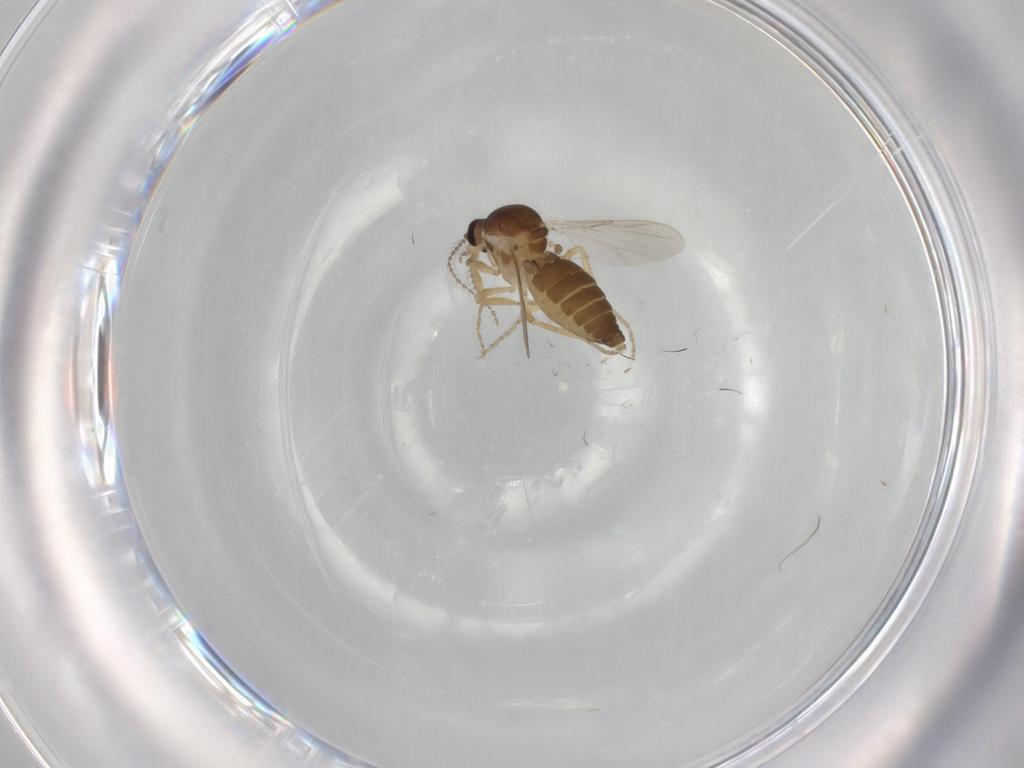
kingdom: Animalia
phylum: Arthropoda
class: Insecta
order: Diptera
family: Ceratopogonidae
